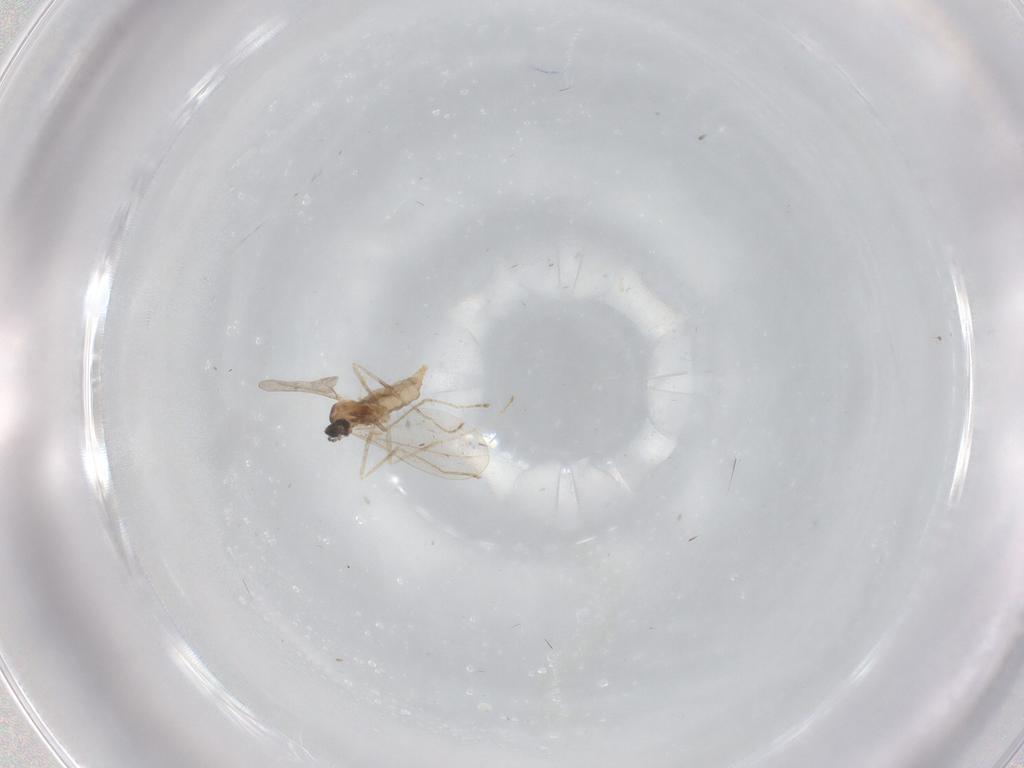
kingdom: Animalia
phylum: Arthropoda
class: Insecta
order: Diptera
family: Cecidomyiidae
